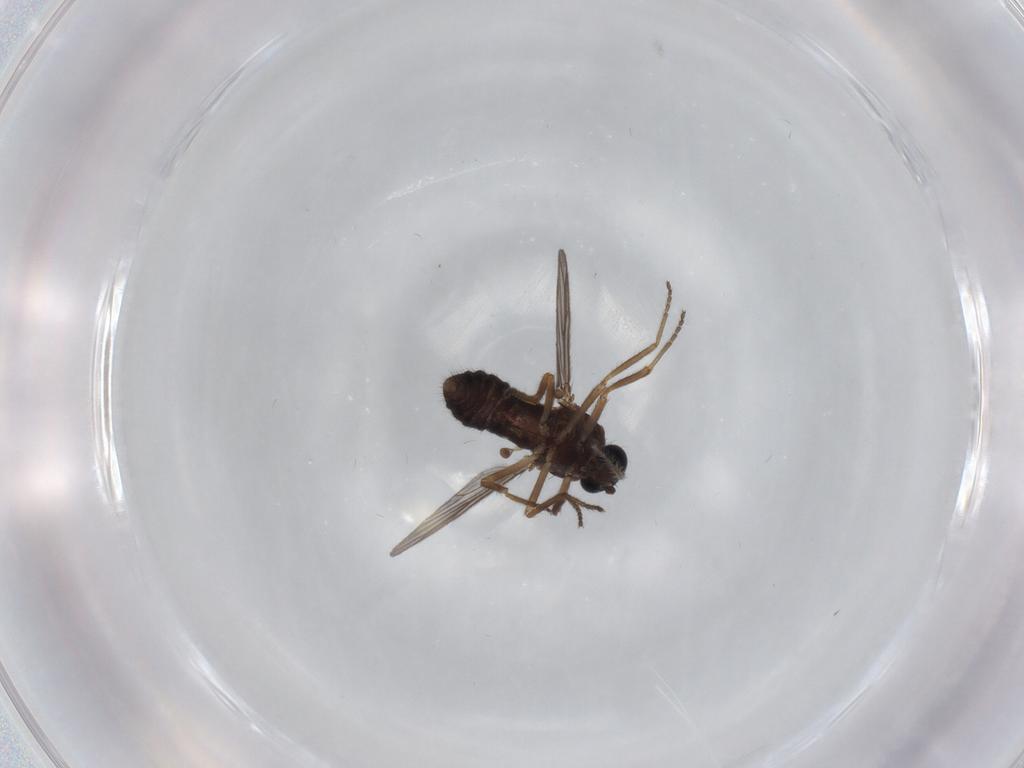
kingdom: Animalia
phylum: Arthropoda
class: Insecta
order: Diptera
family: Ceratopogonidae
